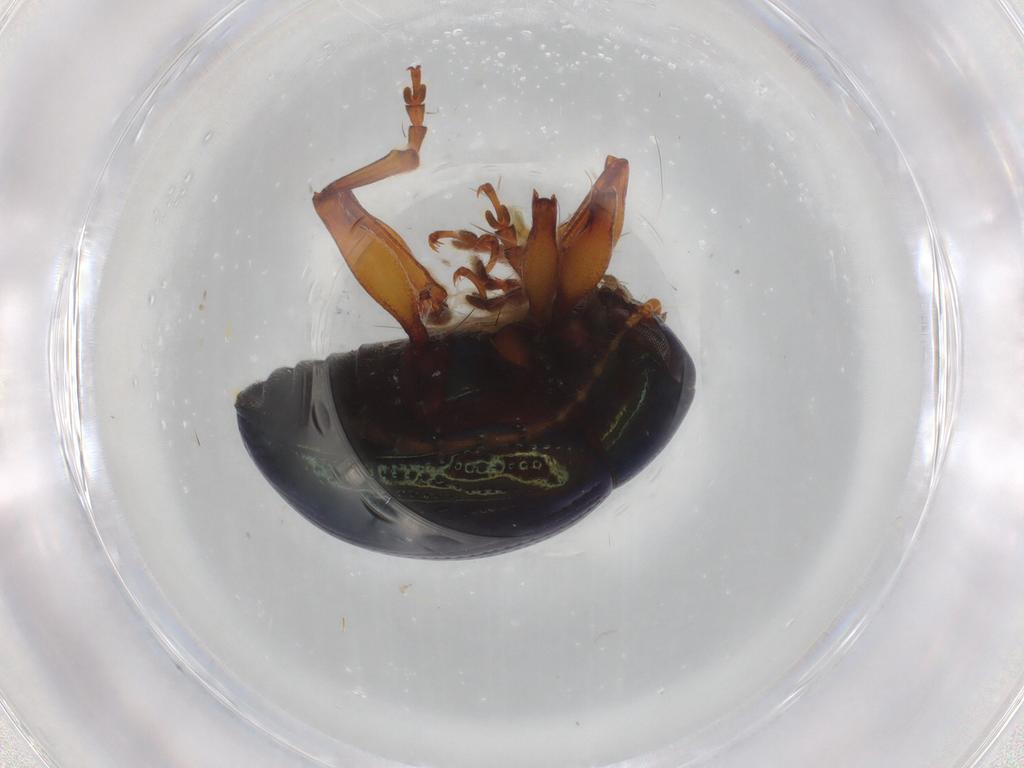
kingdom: Animalia
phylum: Arthropoda
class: Insecta
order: Coleoptera
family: Chrysomelidae
